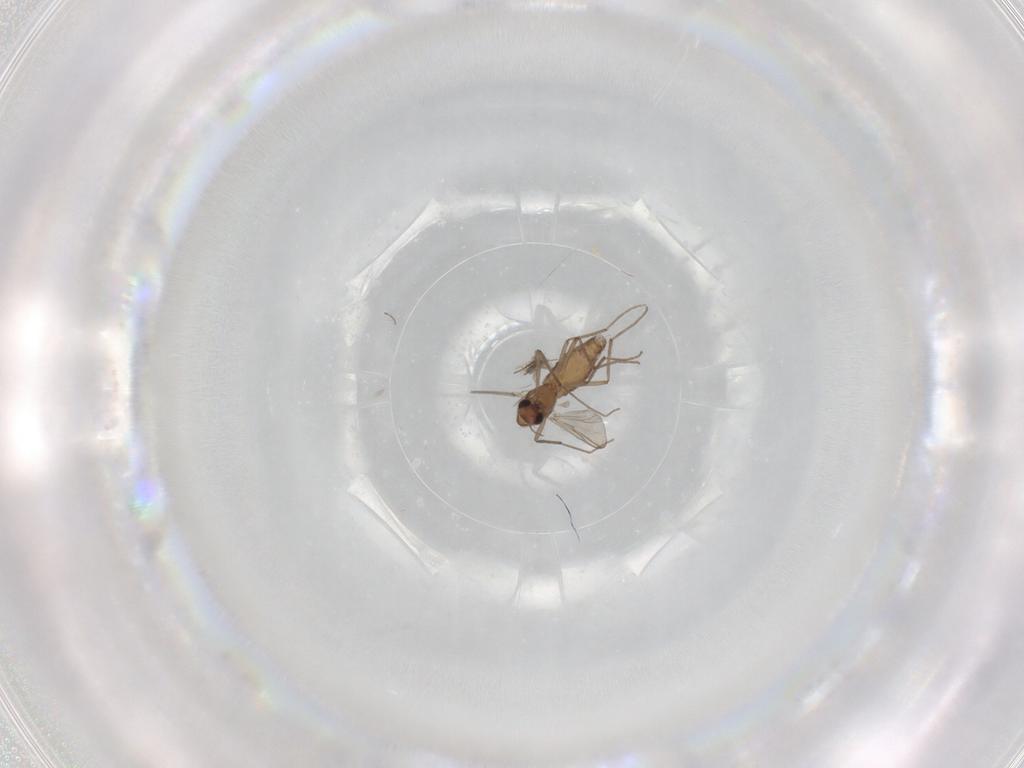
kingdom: Animalia
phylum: Arthropoda
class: Insecta
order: Diptera
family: Chironomidae
